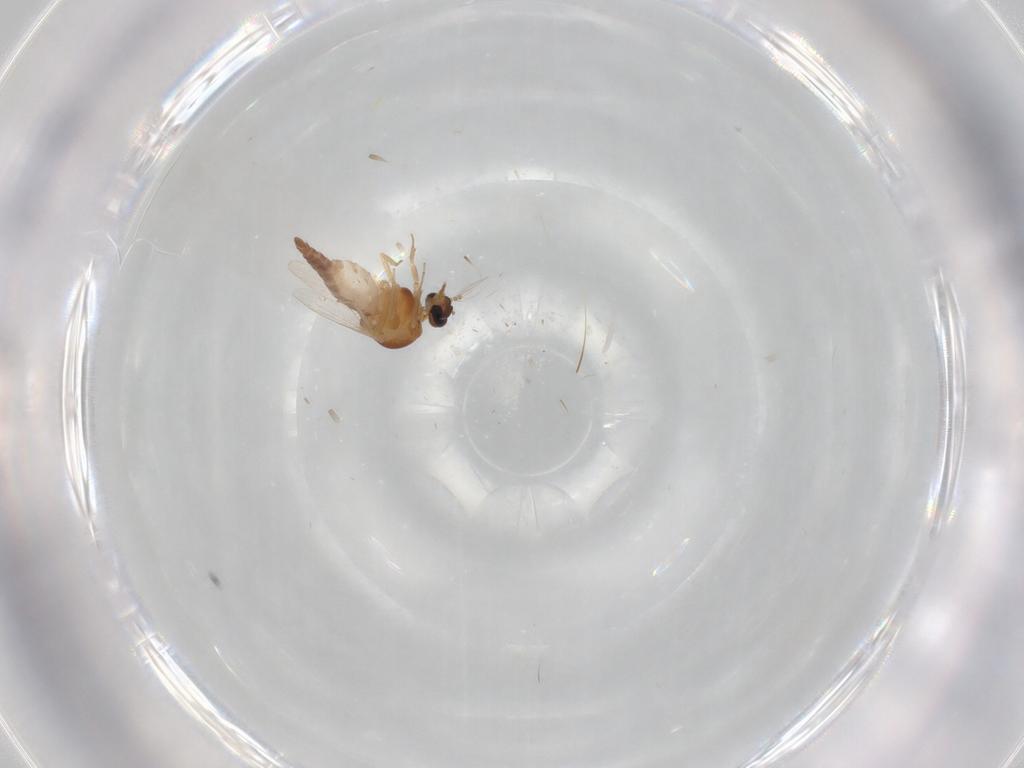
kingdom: Animalia
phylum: Arthropoda
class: Insecta
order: Diptera
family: Ceratopogonidae
